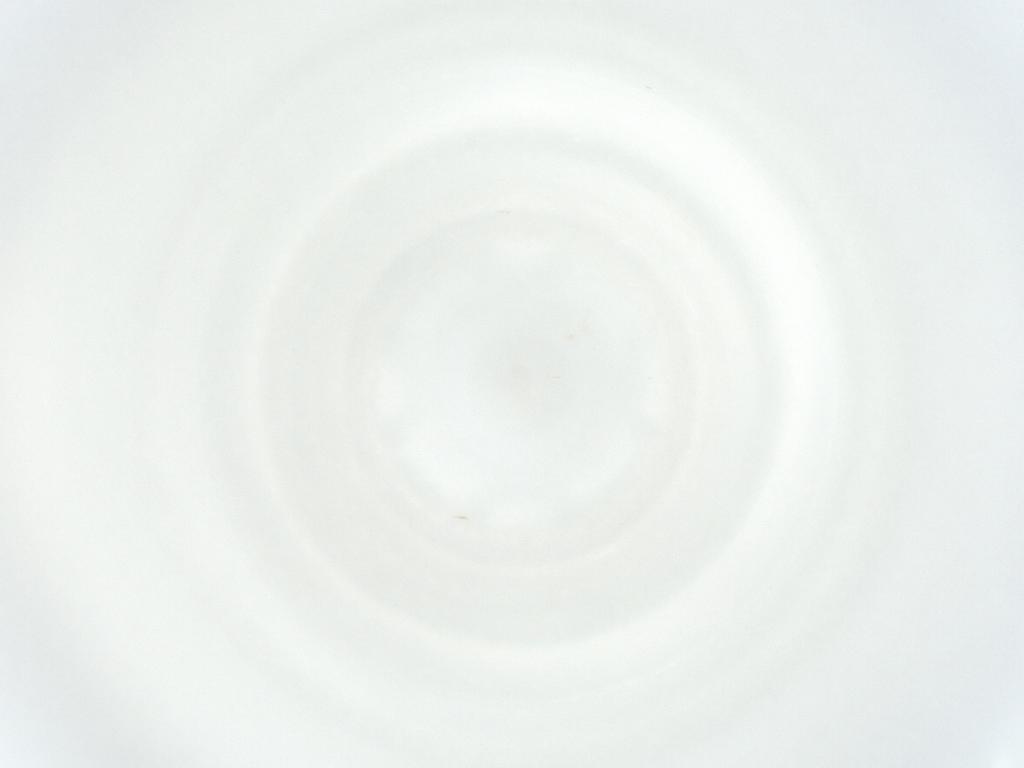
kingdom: Animalia
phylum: Arthropoda
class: Arachnida
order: Mesostigmata
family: Phytoseiidae
